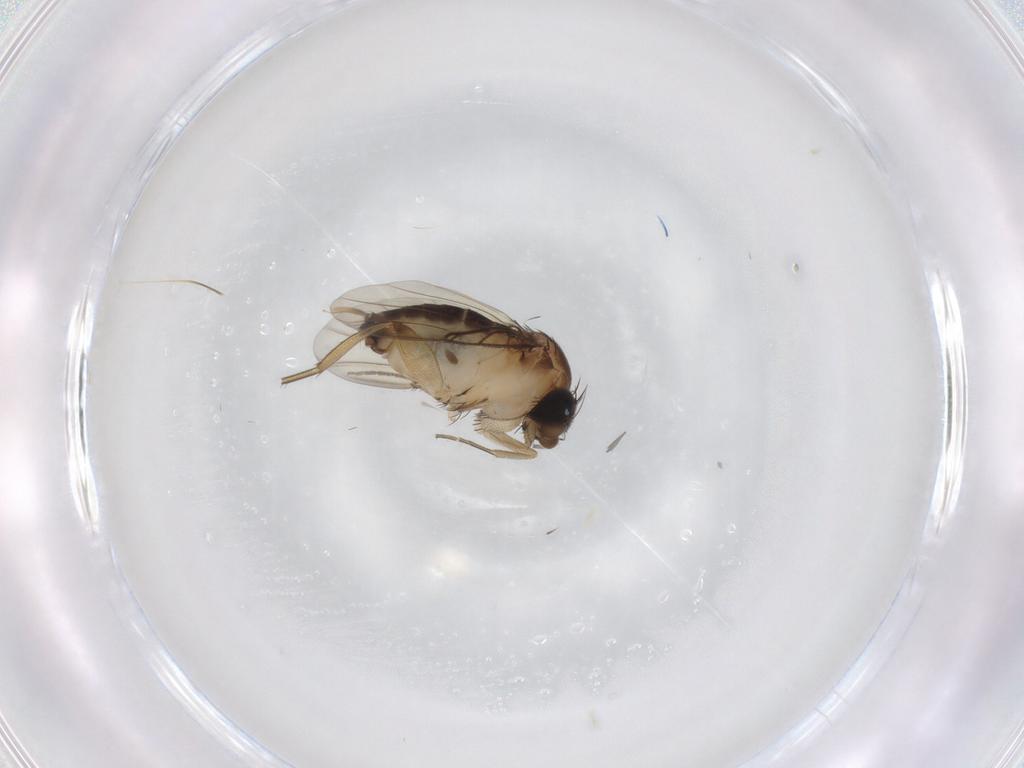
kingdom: Animalia
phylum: Arthropoda
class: Insecta
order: Diptera
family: Phoridae
